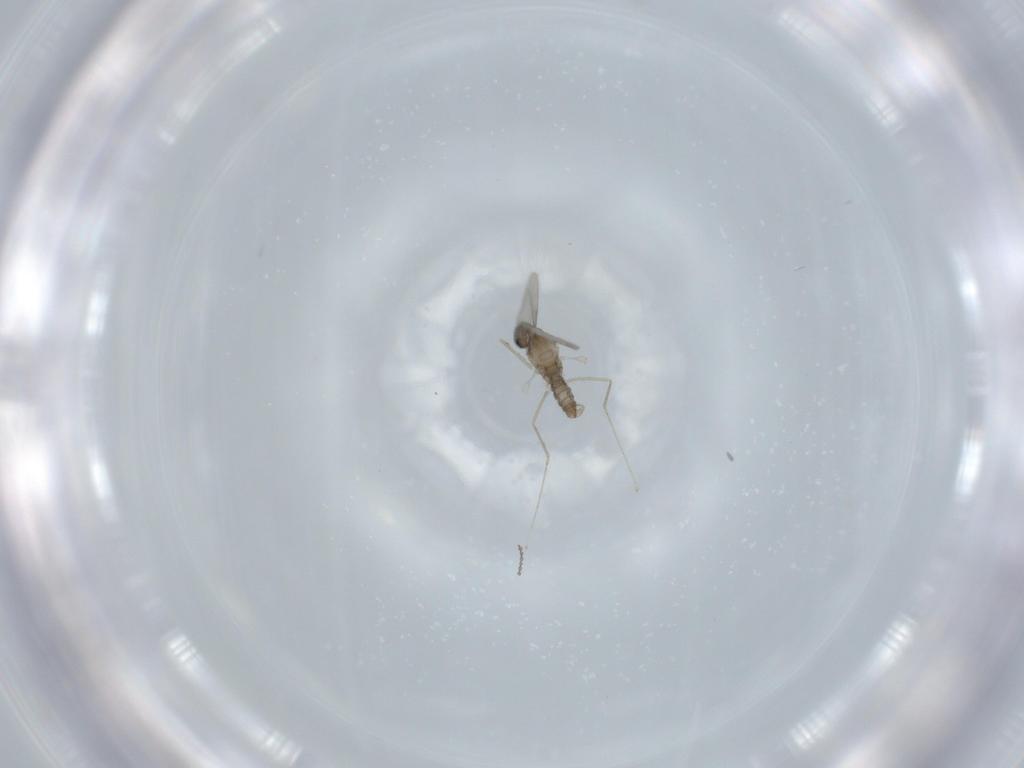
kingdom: Animalia
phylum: Arthropoda
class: Insecta
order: Diptera
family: Cecidomyiidae
